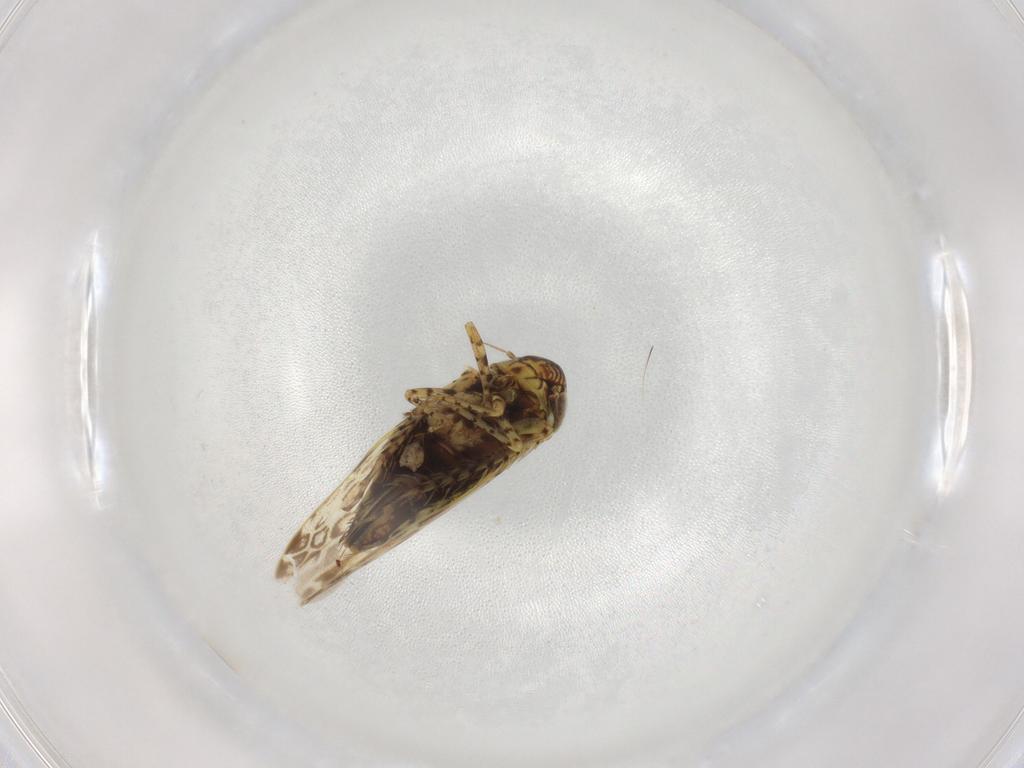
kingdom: Animalia
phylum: Arthropoda
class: Insecta
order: Hemiptera
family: Cicadellidae
